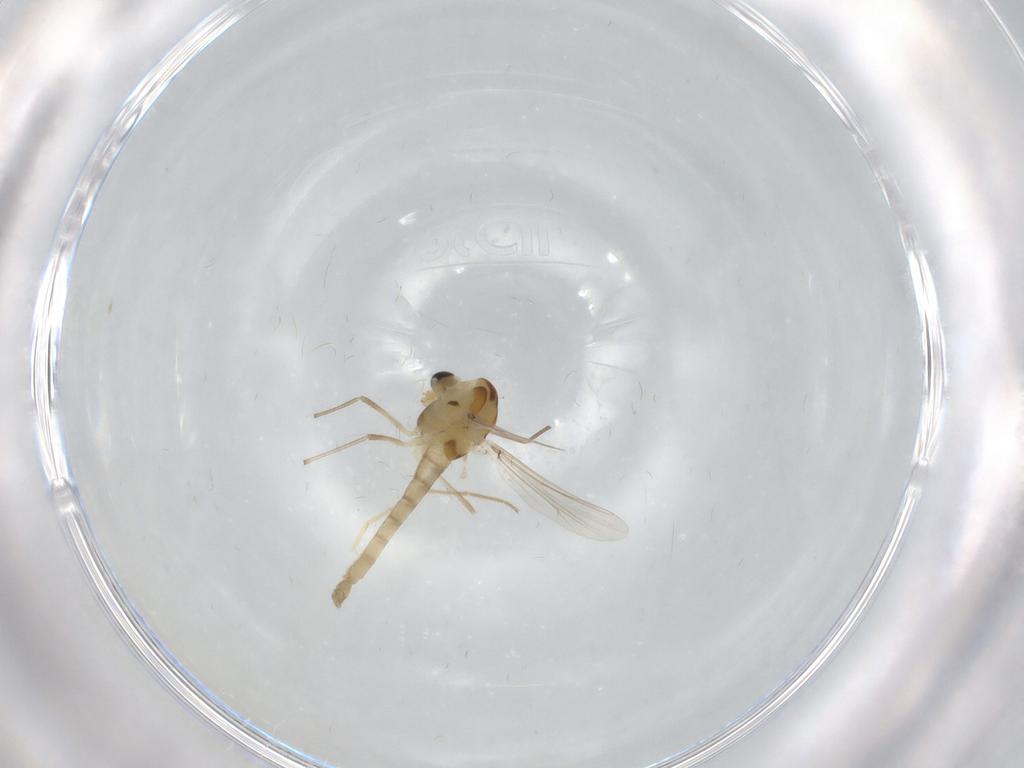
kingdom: Animalia
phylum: Arthropoda
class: Insecta
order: Diptera
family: Chironomidae
